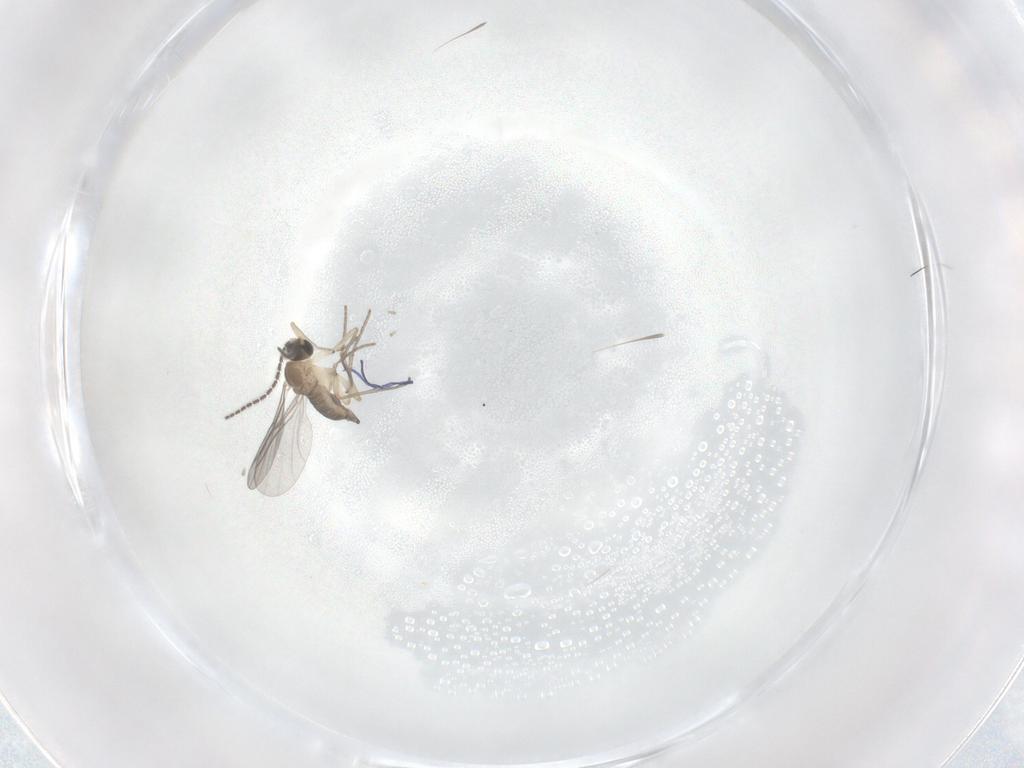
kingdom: Animalia
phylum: Arthropoda
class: Insecta
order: Diptera
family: Sciaridae
